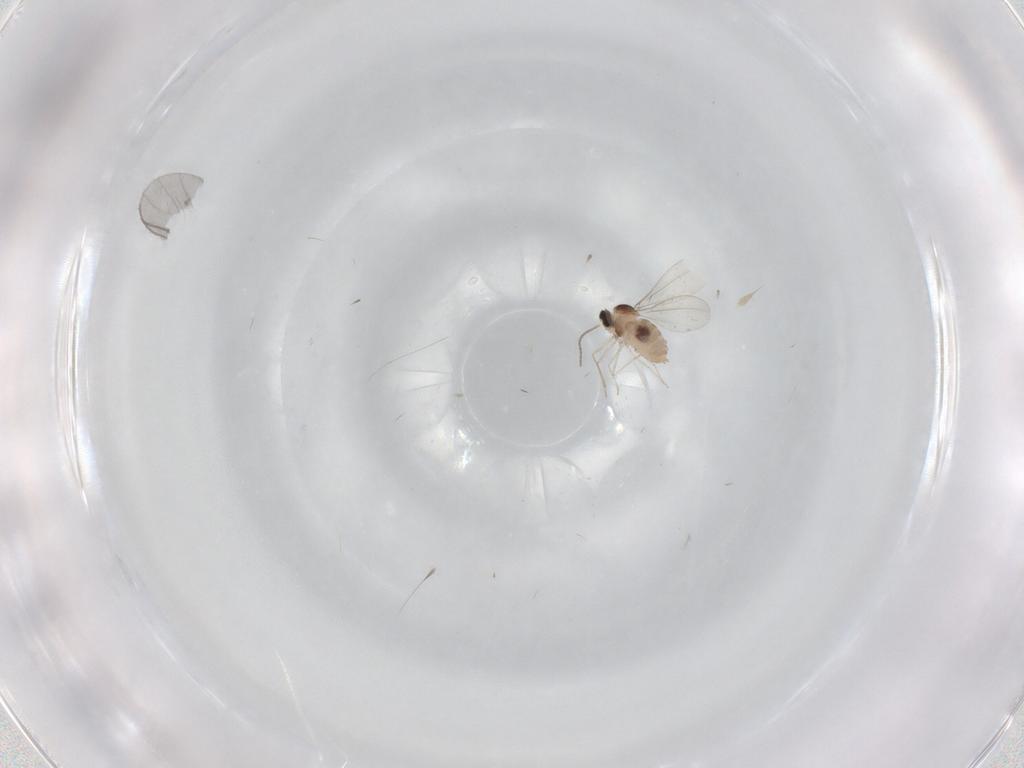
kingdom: Animalia
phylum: Arthropoda
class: Insecta
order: Diptera
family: Cecidomyiidae
